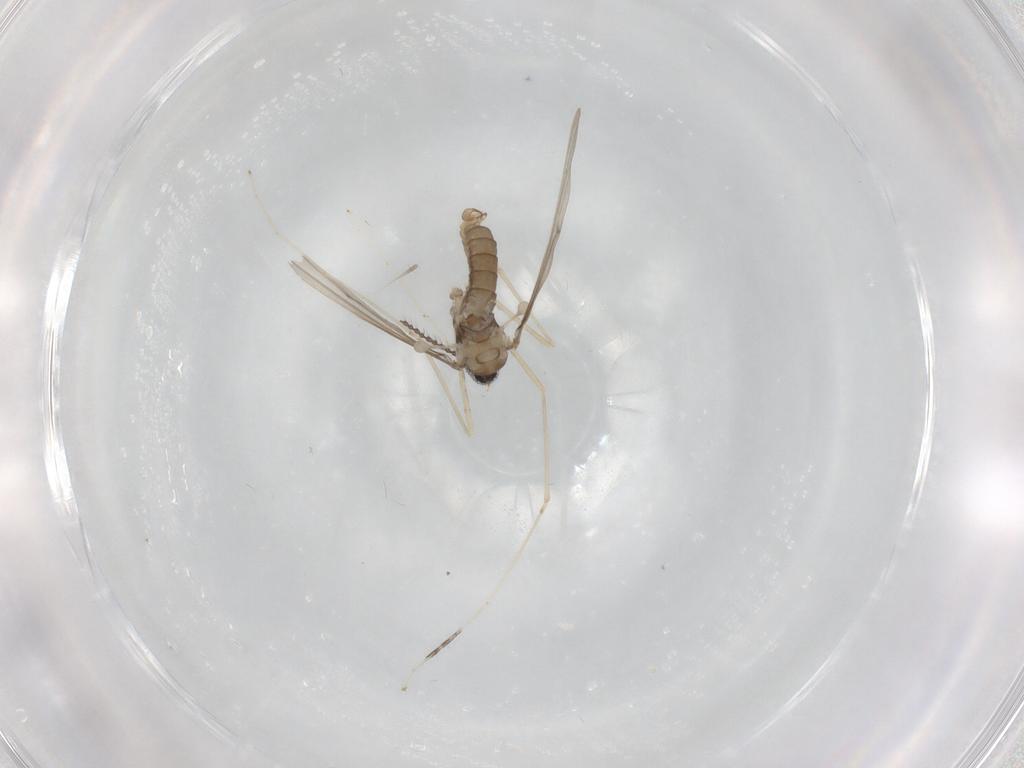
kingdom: Animalia
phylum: Arthropoda
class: Insecta
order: Diptera
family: Cecidomyiidae
